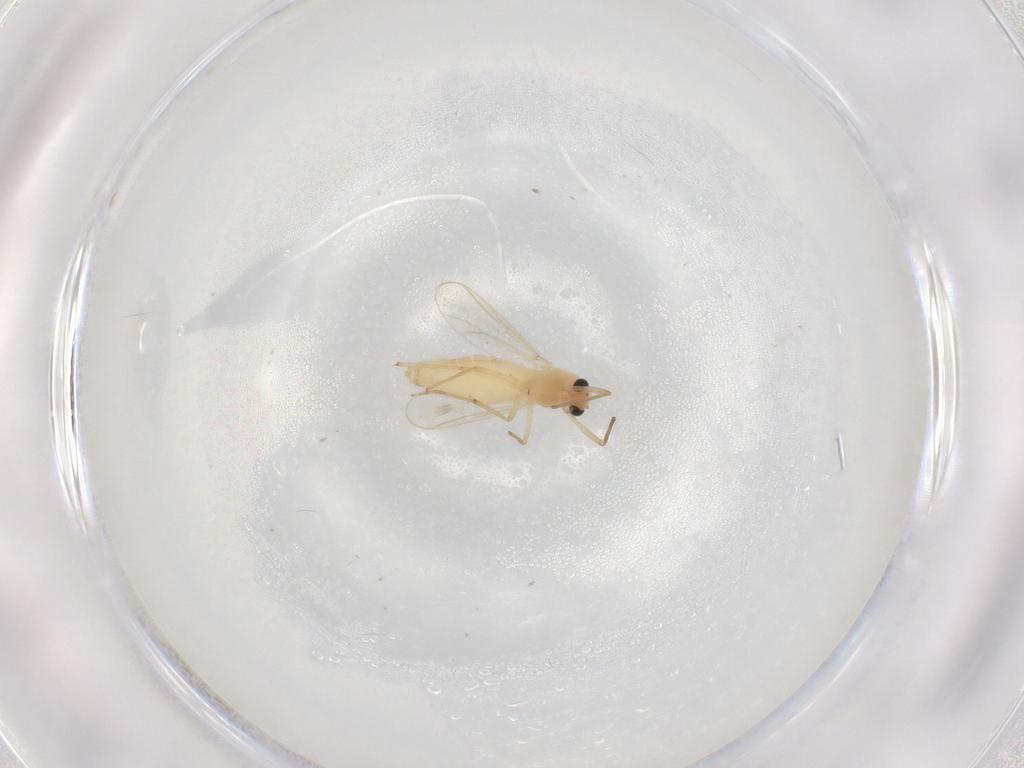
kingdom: Animalia
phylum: Arthropoda
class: Insecta
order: Diptera
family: Chironomidae
